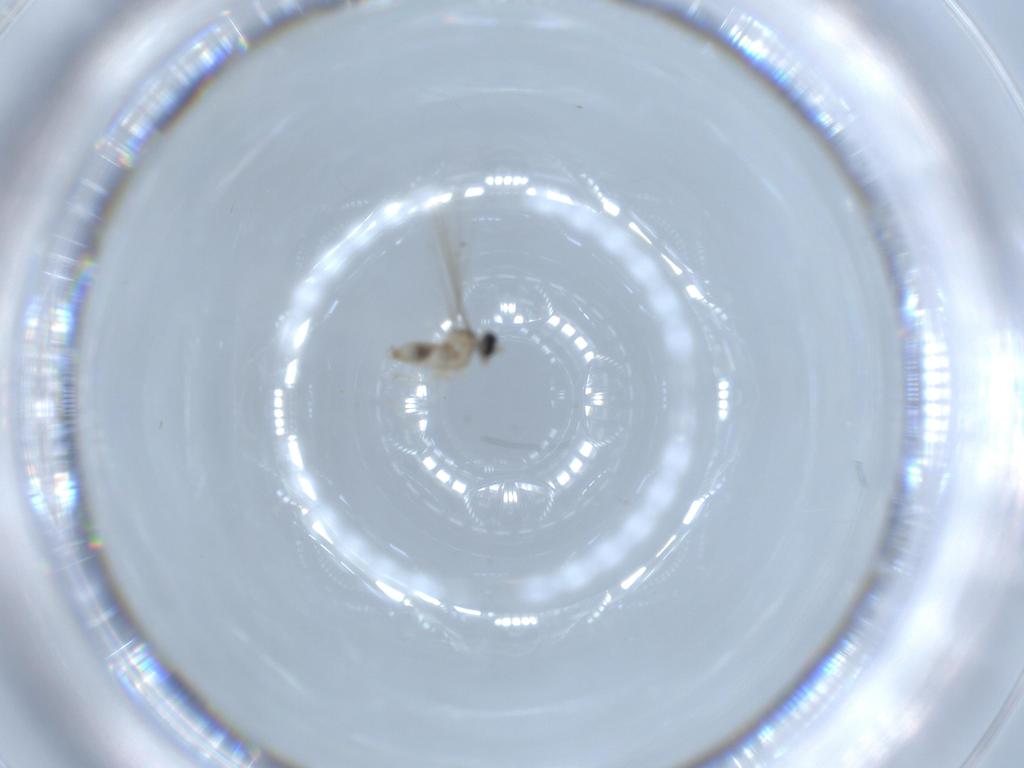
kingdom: Animalia
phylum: Arthropoda
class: Insecta
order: Diptera
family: Cecidomyiidae
